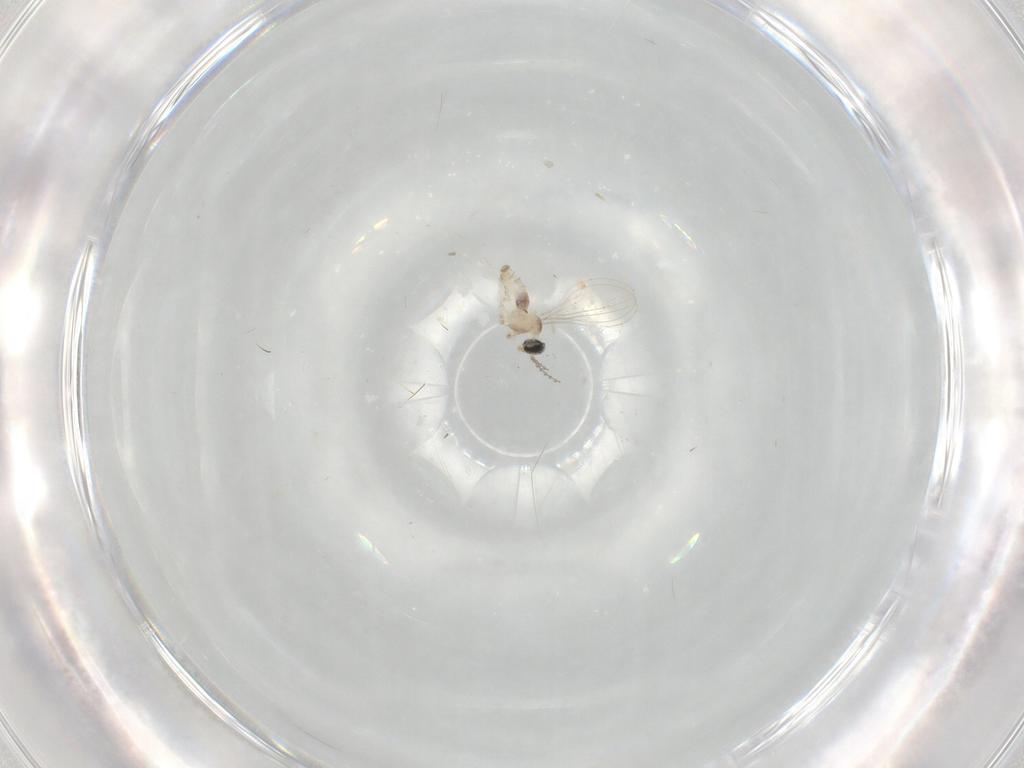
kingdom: Animalia
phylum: Arthropoda
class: Insecta
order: Diptera
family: Cecidomyiidae
